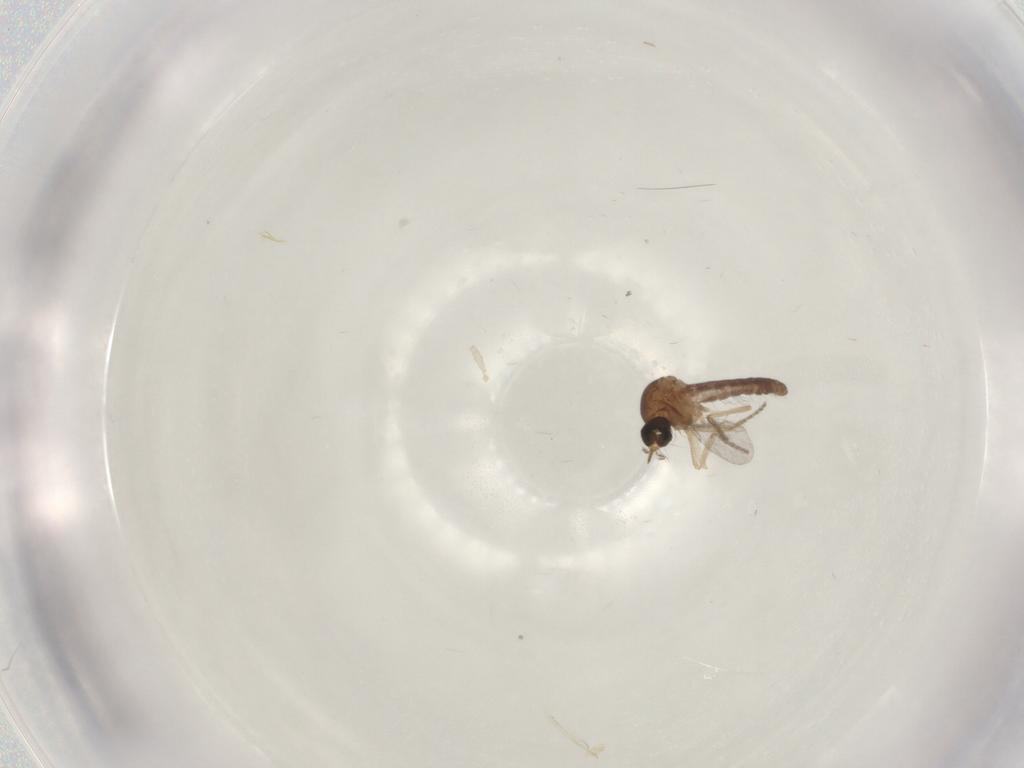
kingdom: Animalia
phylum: Arthropoda
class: Insecta
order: Diptera
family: Ceratopogonidae
